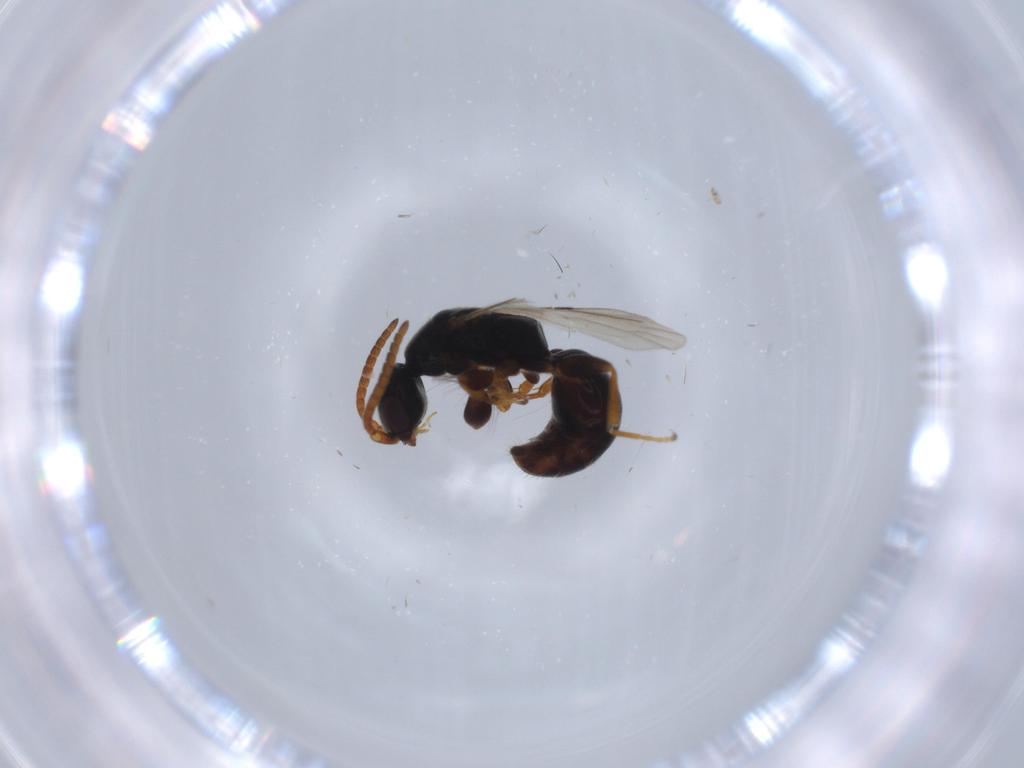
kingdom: Animalia
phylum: Arthropoda
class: Insecta
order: Hymenoptera
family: Bethylidae
